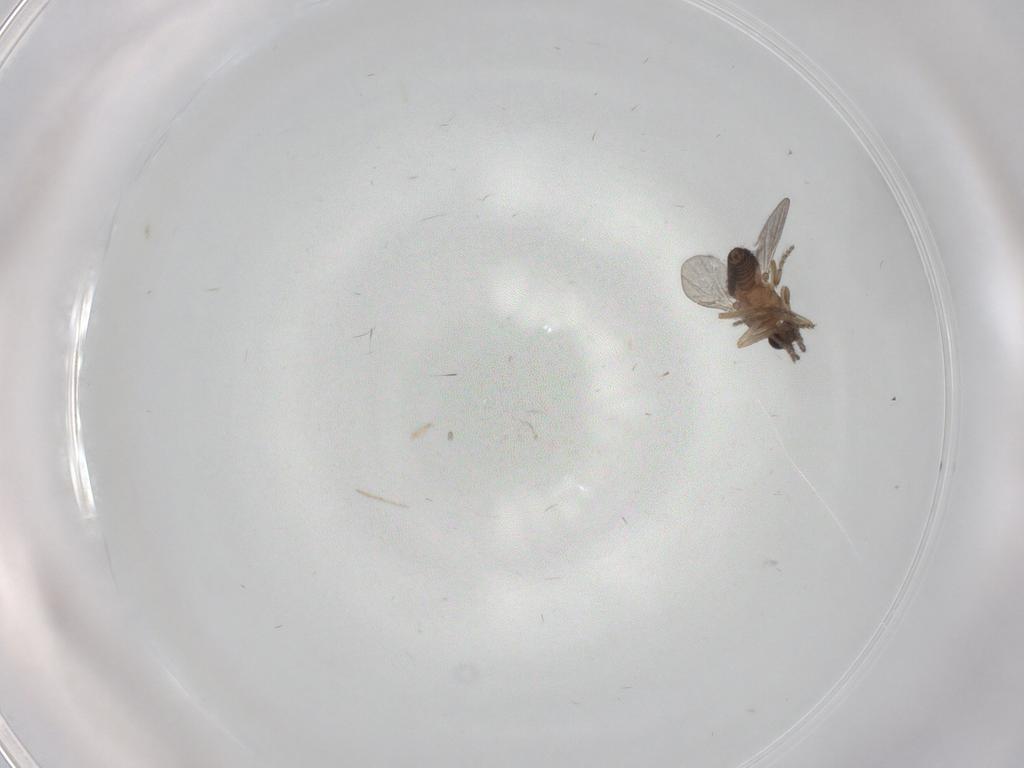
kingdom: Animalia
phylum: Arthropoda
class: Insecta
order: Diptera
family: Ceratopogonidae
